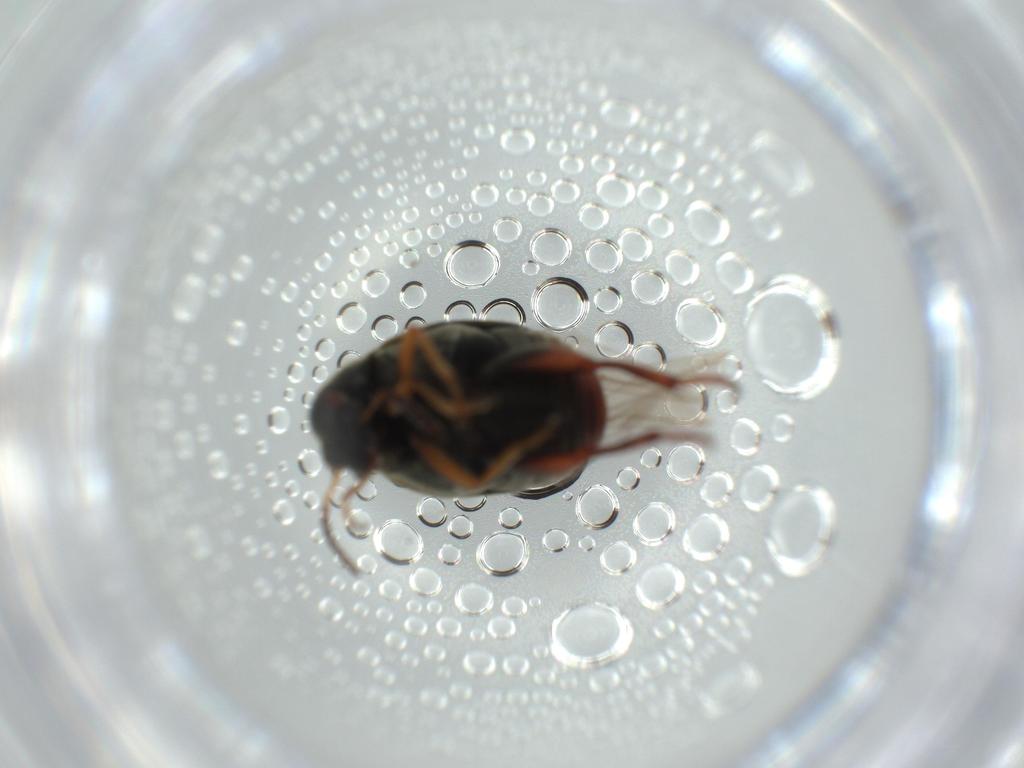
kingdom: Animalia
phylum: Arthropoda
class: Insecta
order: Coleoptera
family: Chrysomelidae
